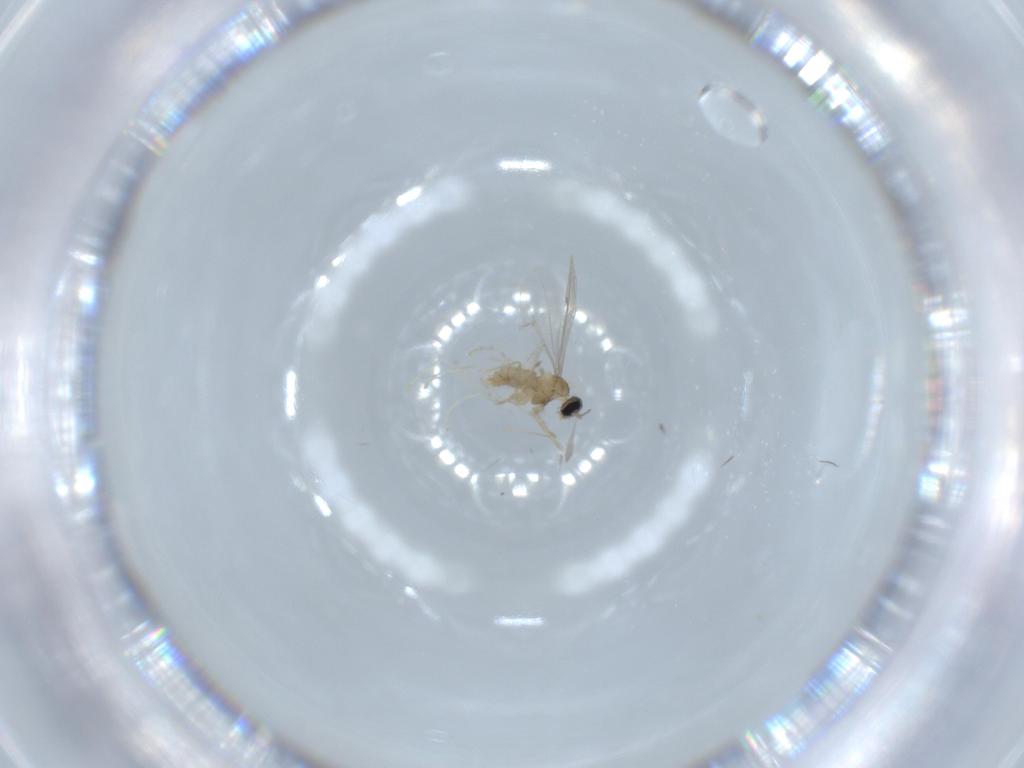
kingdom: Animalia
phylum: Arthropoda
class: Insecta
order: Diptera
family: Cecidomyiidae
